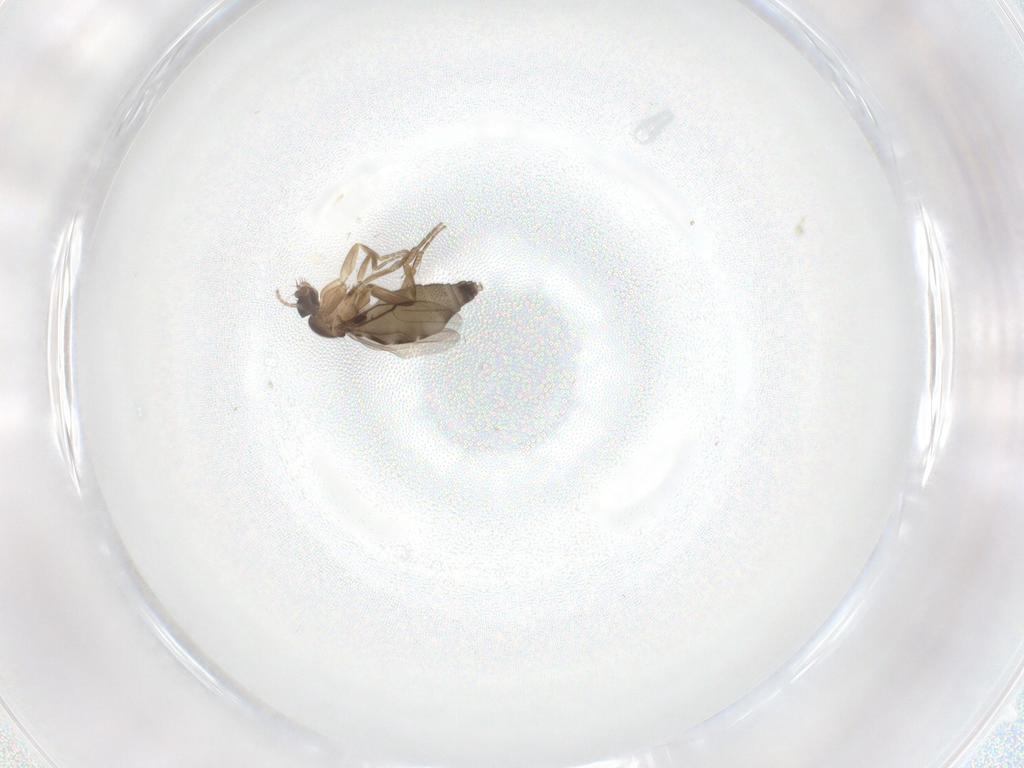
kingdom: Animalia
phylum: Arthropoda
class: Insecta
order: Diptera
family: Phoridae
